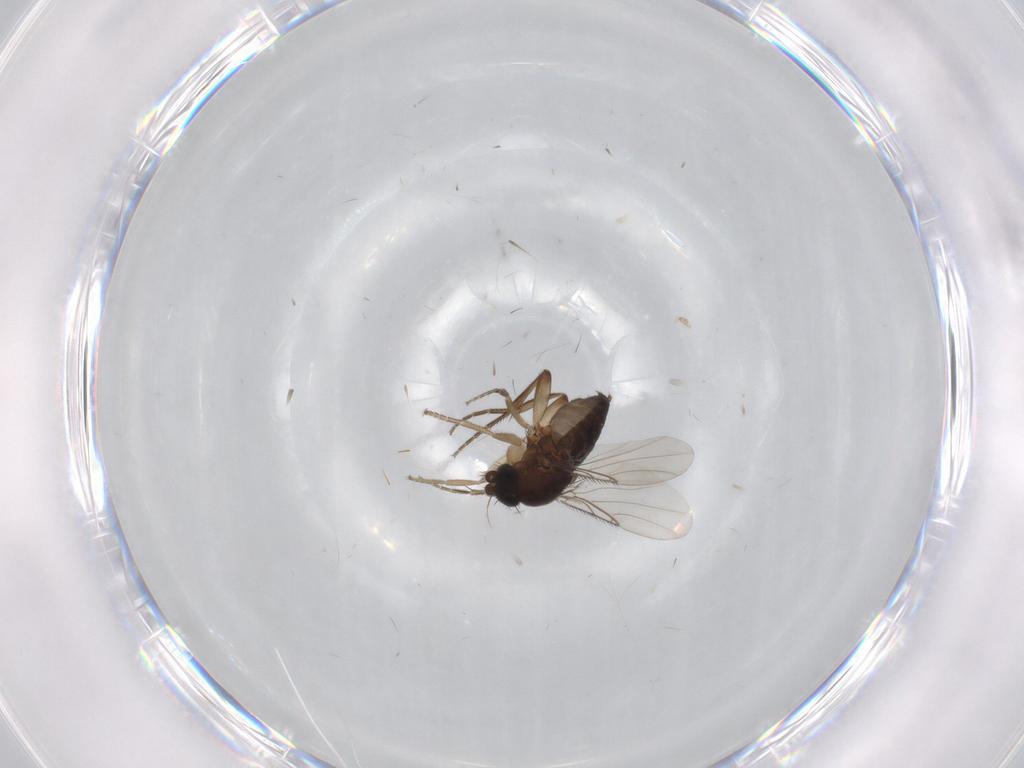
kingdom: Animalia
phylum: Arthropoda
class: Insecta
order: Diptera
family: Phoridae
